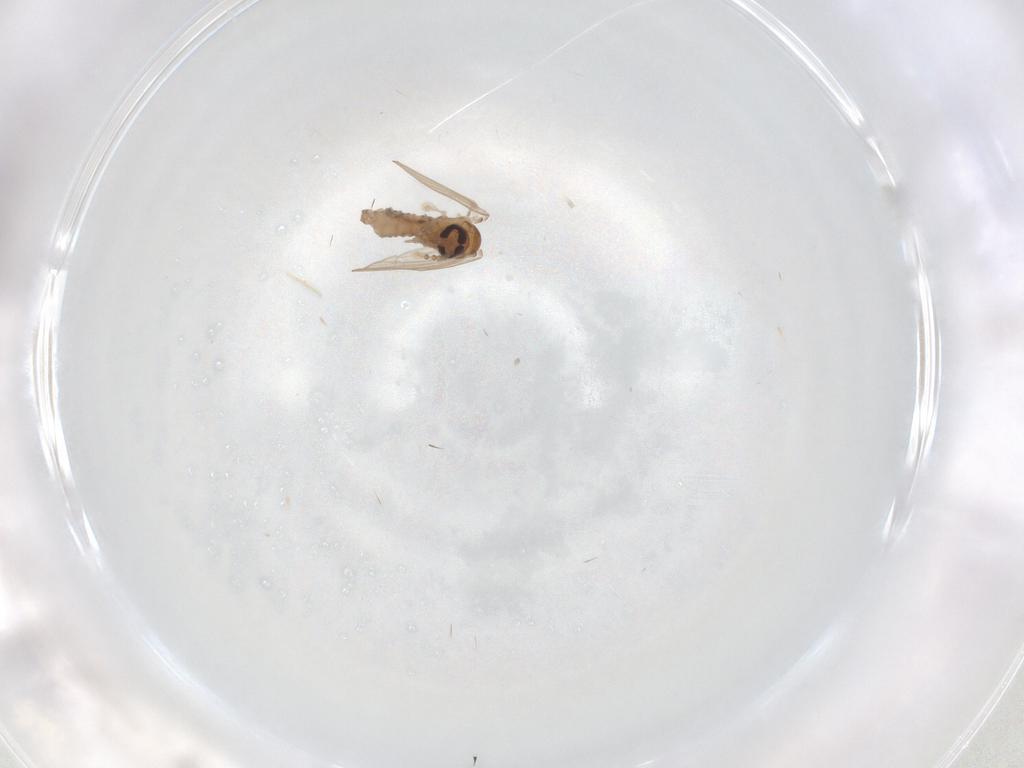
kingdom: Animalia
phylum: Arthropoda
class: Insecta
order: Diptera
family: Psychodidae
